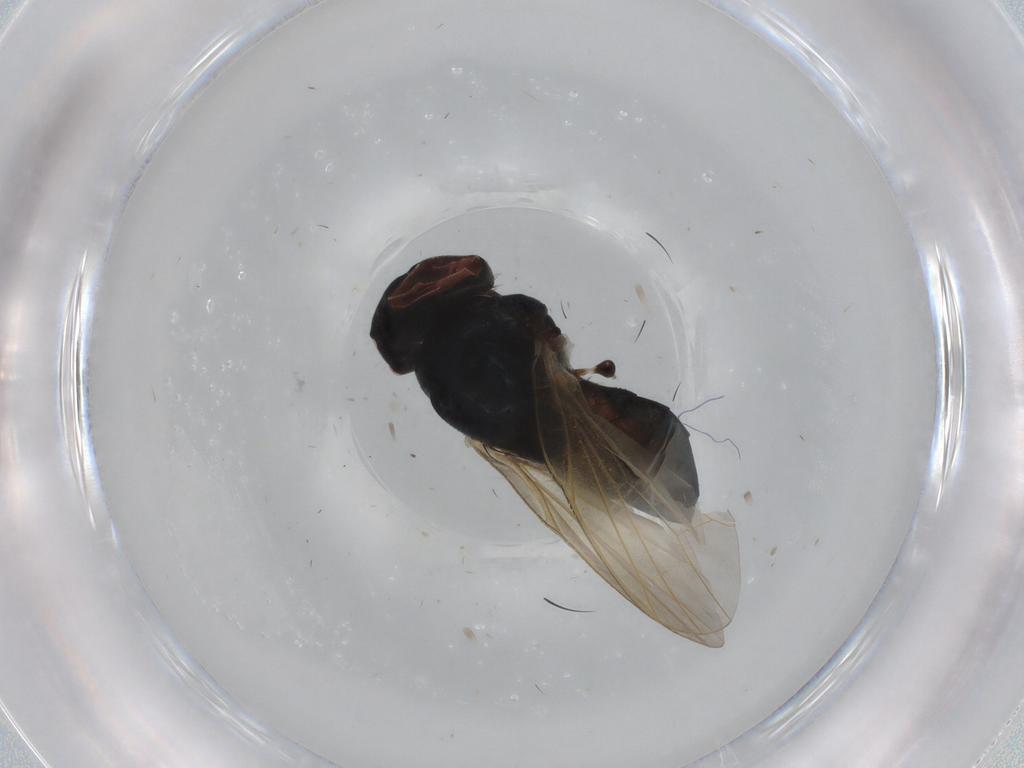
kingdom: Animalia
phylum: Arthropoda
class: Insecta
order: Diptera
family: Lonchaeidae
